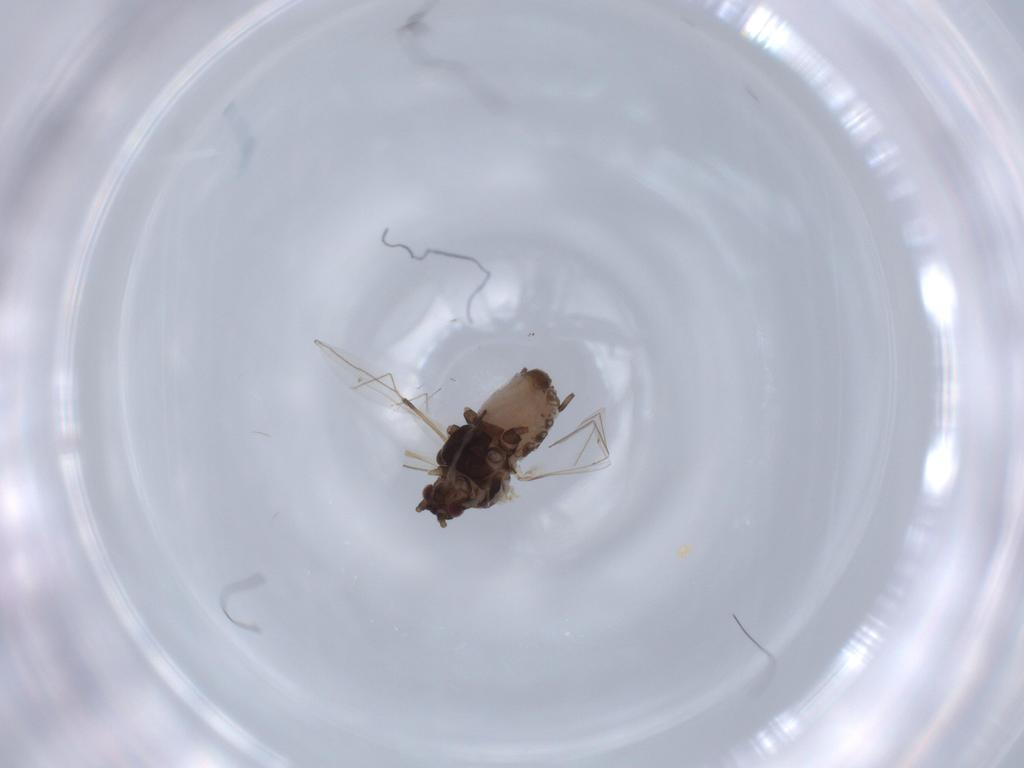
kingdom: Animalia
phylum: Arthropoda
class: Insecta
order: Hemiptera
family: Aphididae
